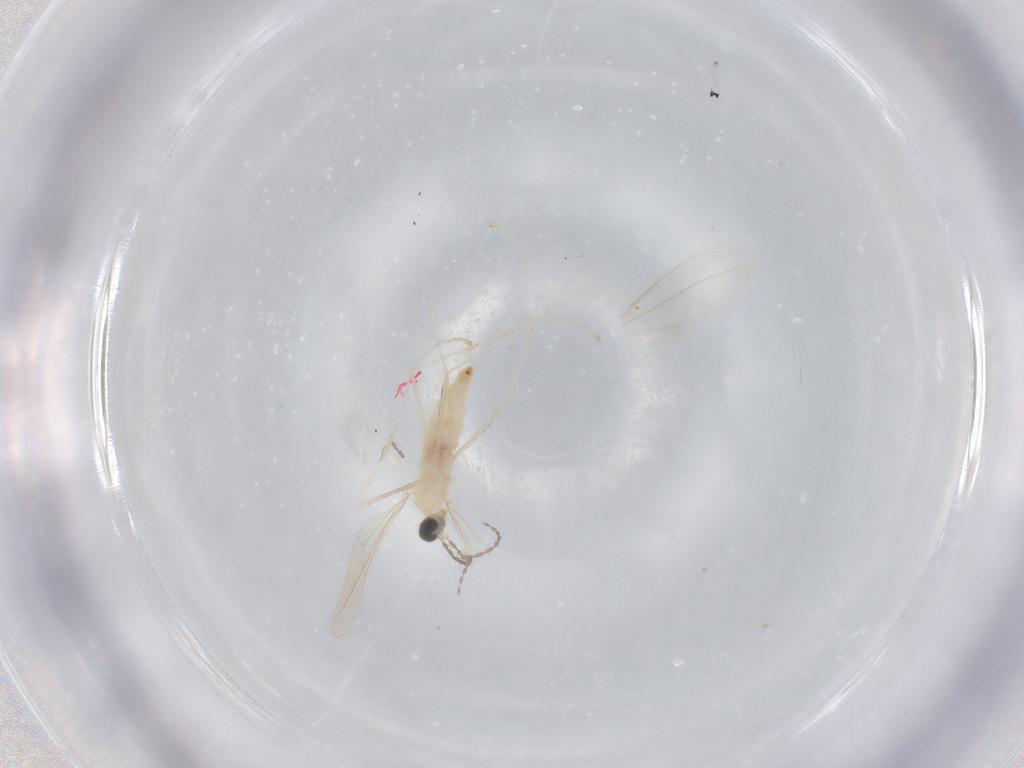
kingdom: Animalia
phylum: Arthropoda
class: Insecta
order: Diptera
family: Cecidomyiidae
